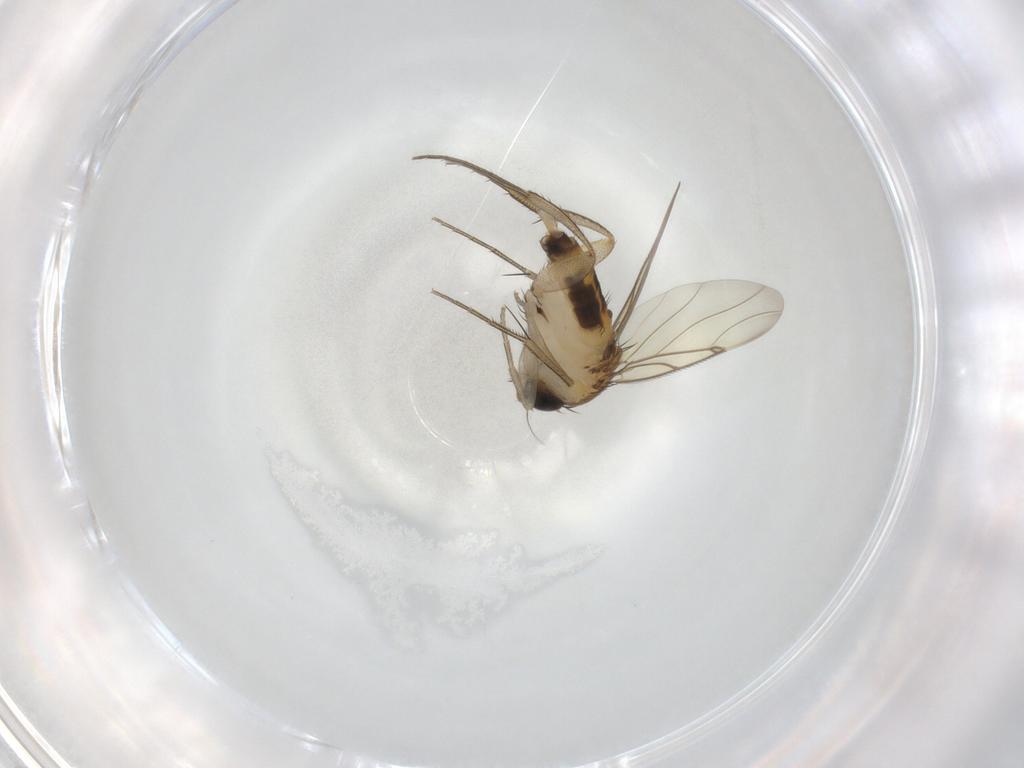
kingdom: Animalia
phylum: Arthropoda
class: Insecta
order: Diptera
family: Phoridae
